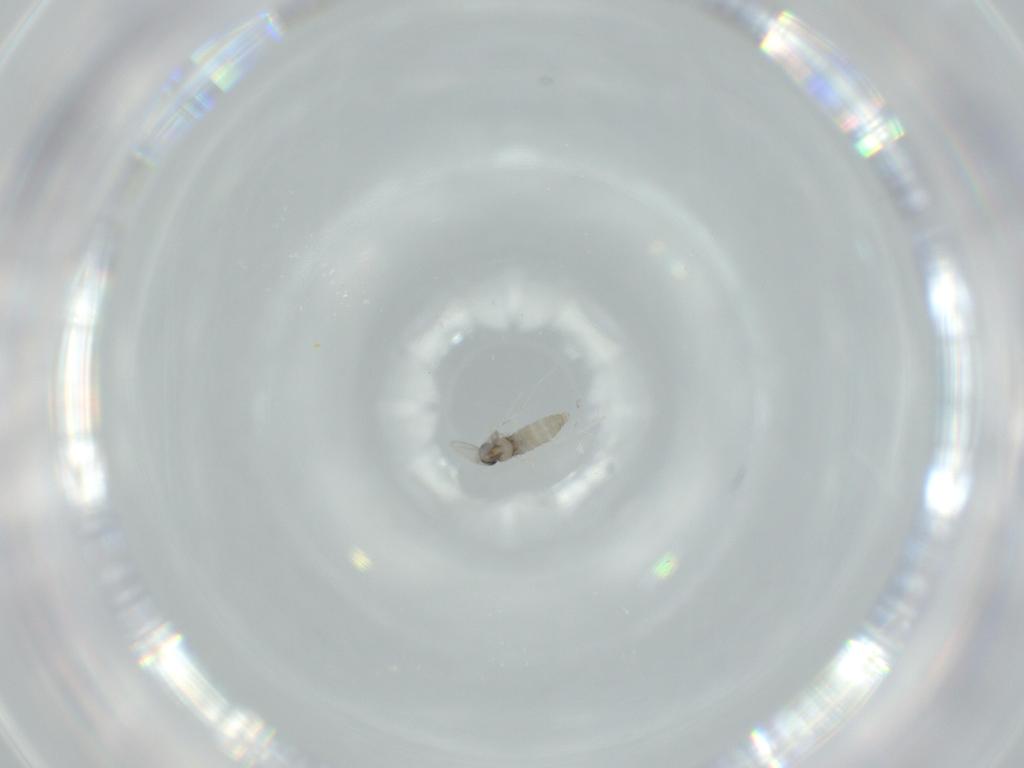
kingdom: Animalia
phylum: Arthropoda
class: Insecta
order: Diptera
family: Cecidomyiidae
